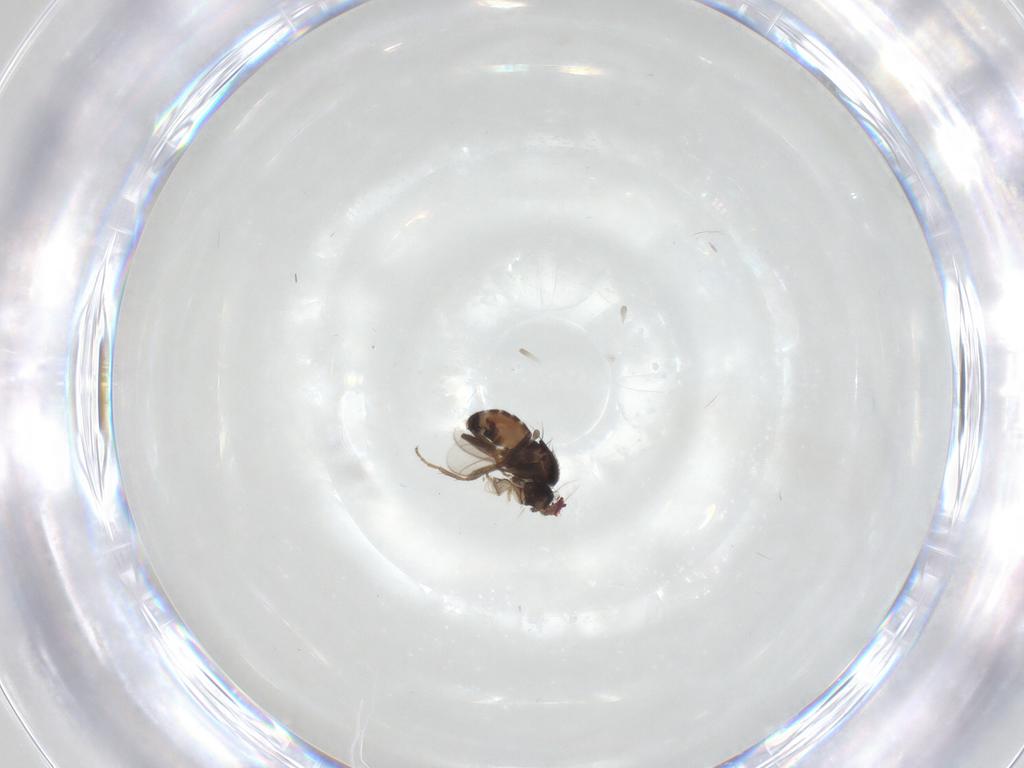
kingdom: Animalia
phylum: Arthropoda
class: Insecta
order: Diptera
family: Sphaeroceridae
